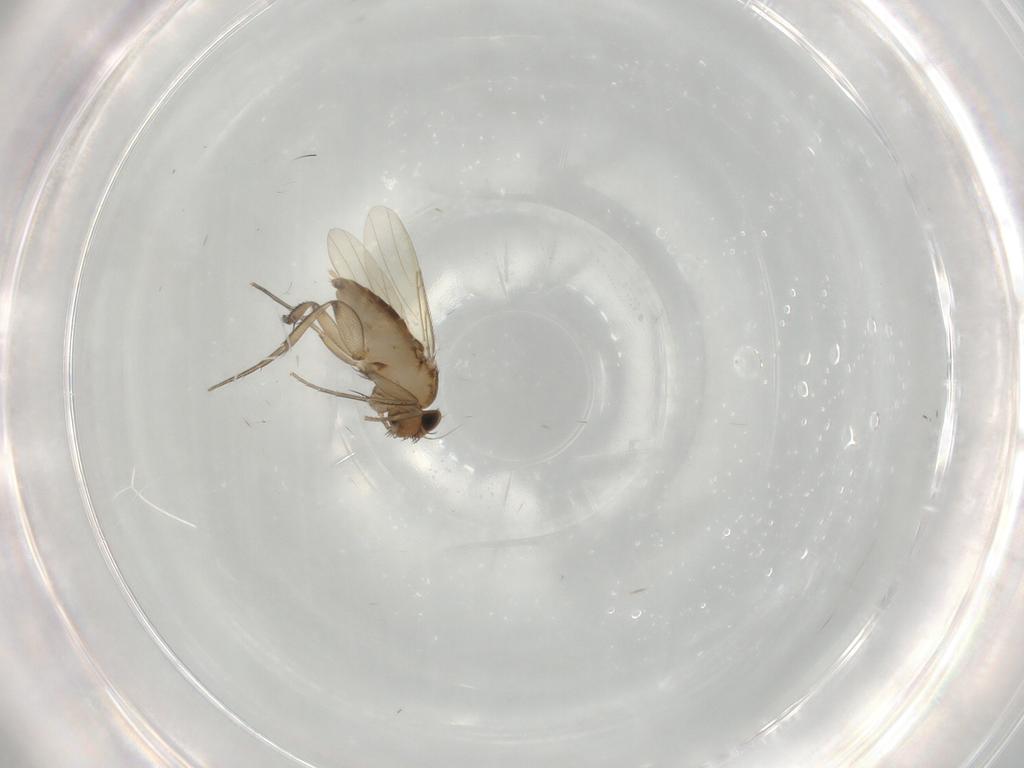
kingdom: Animalia
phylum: Arthropoda
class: Insecta
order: Diptera
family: Phoridae
